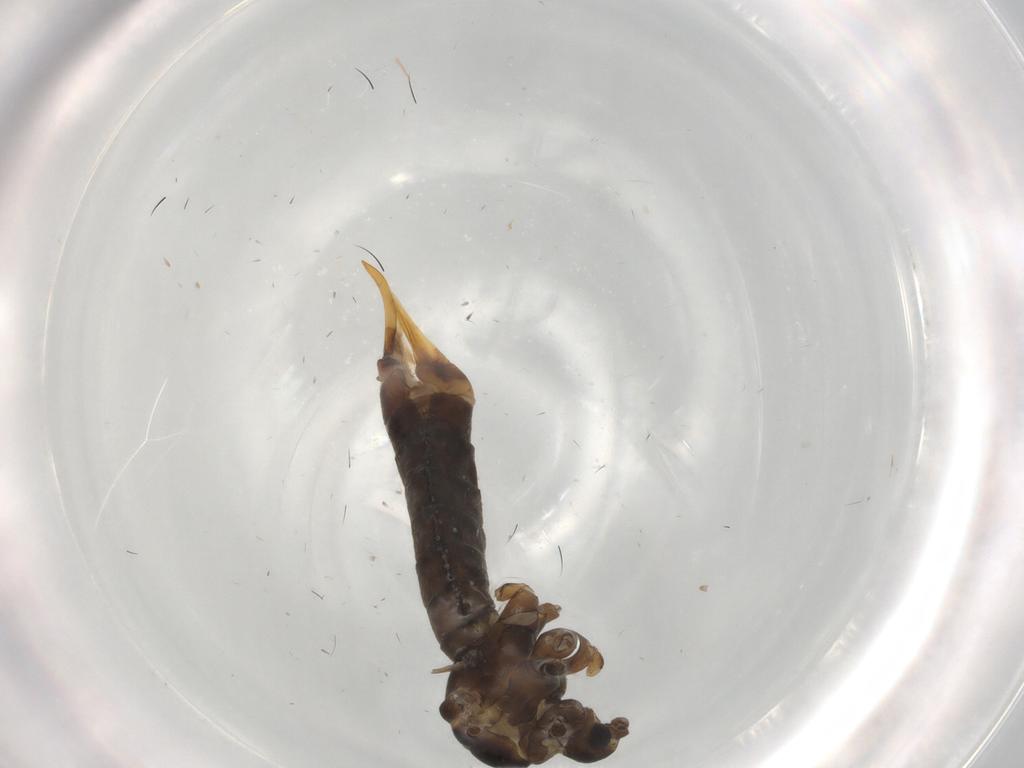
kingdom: Animalia
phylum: Arthropoda
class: Insecta
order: Diptera
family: Limoniidae
